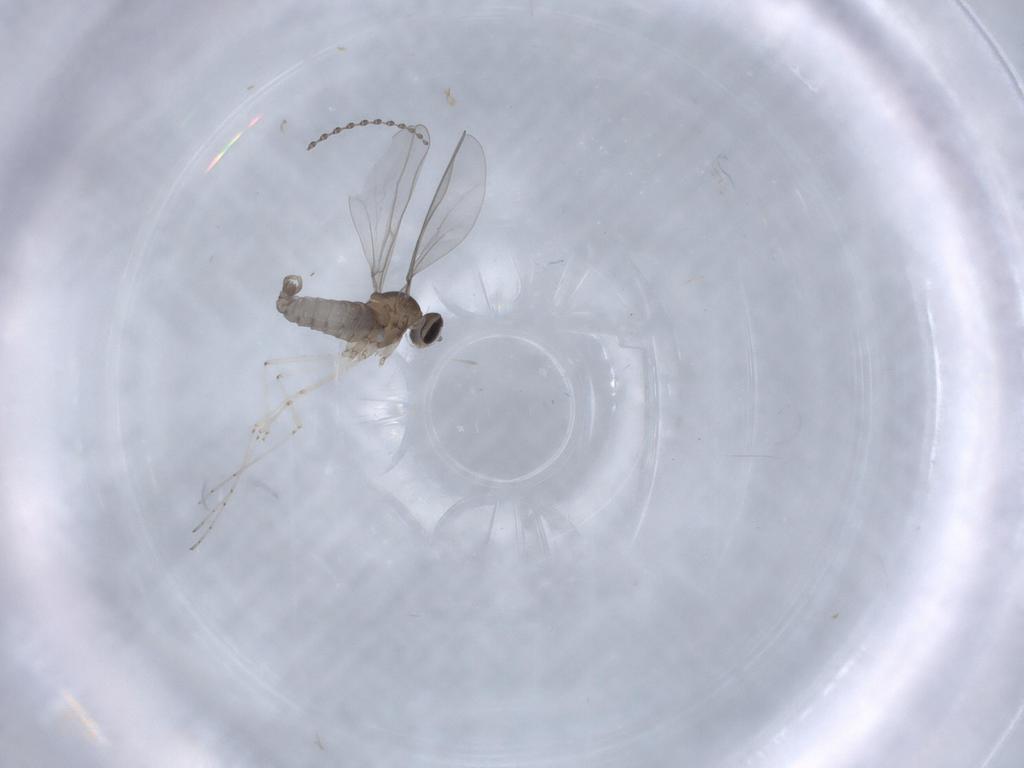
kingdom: Animalia
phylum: Arthropoda
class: Insecta
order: Diptera
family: Cecidomyiidae
